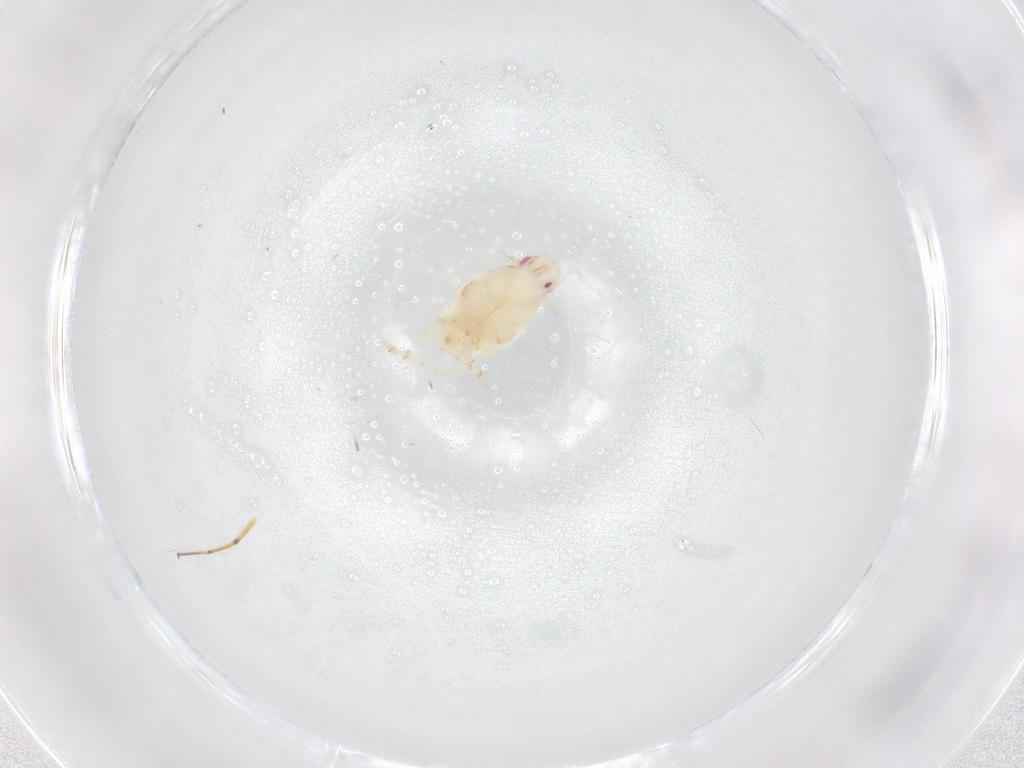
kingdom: Animalia
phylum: Arthropoda
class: Insecta
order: Hemiptera
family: Flatidae
